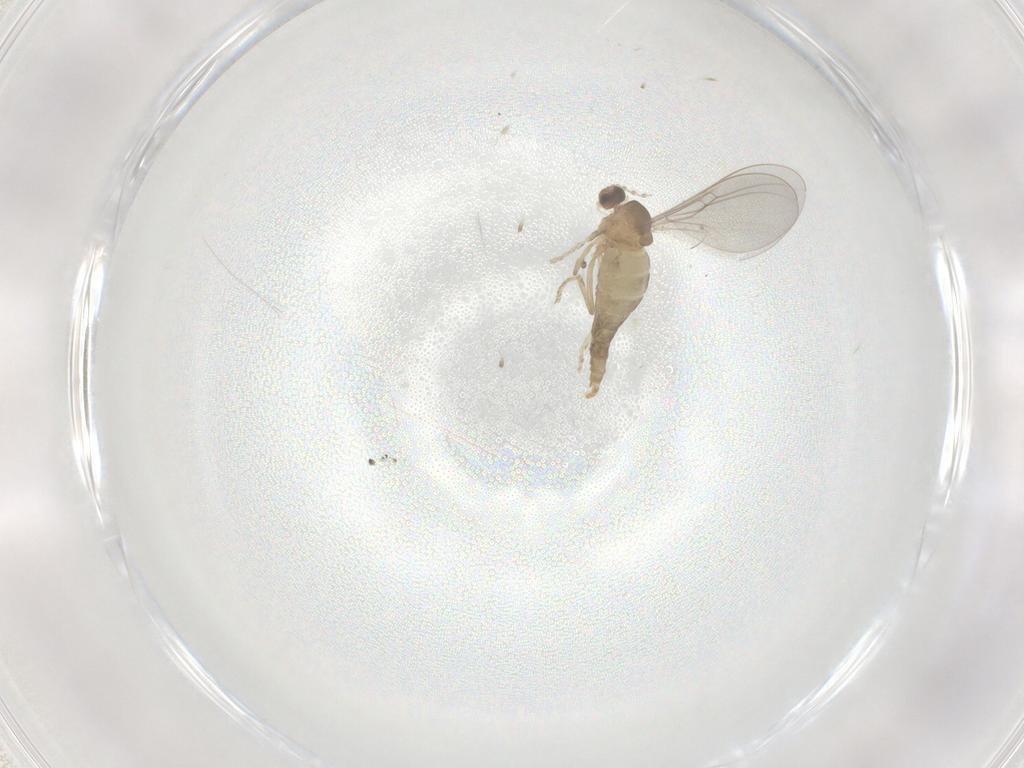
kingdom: Animalia
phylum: Arthropoda
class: Insecta
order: Diptera
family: Cecidomyiidae
